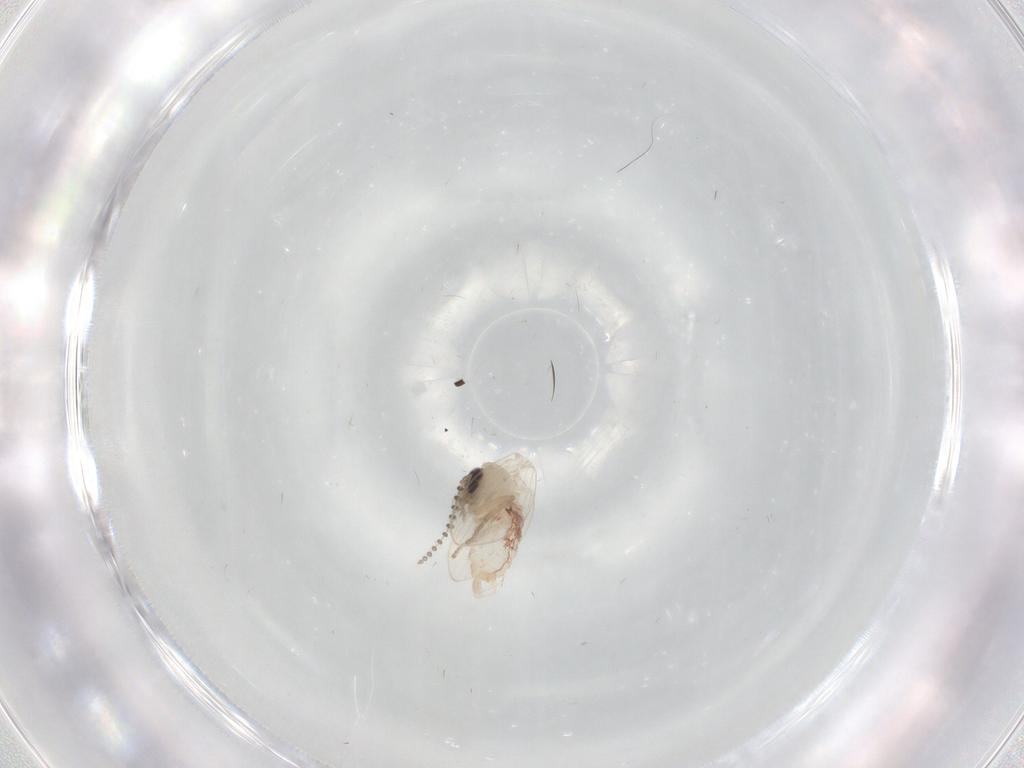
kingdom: Animalia
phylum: Arthropoda
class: Insecta
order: Diptera
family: Psychodidae
